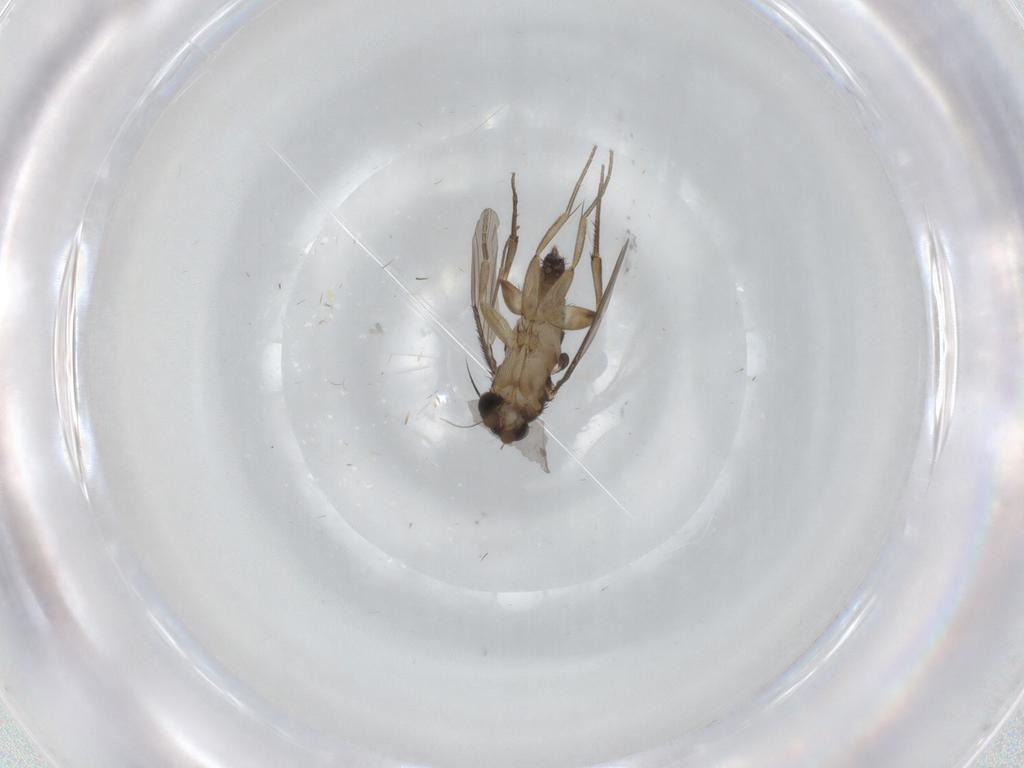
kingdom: Animalia
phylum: Arthropoda
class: Insecta
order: Diptera
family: Phoridae
